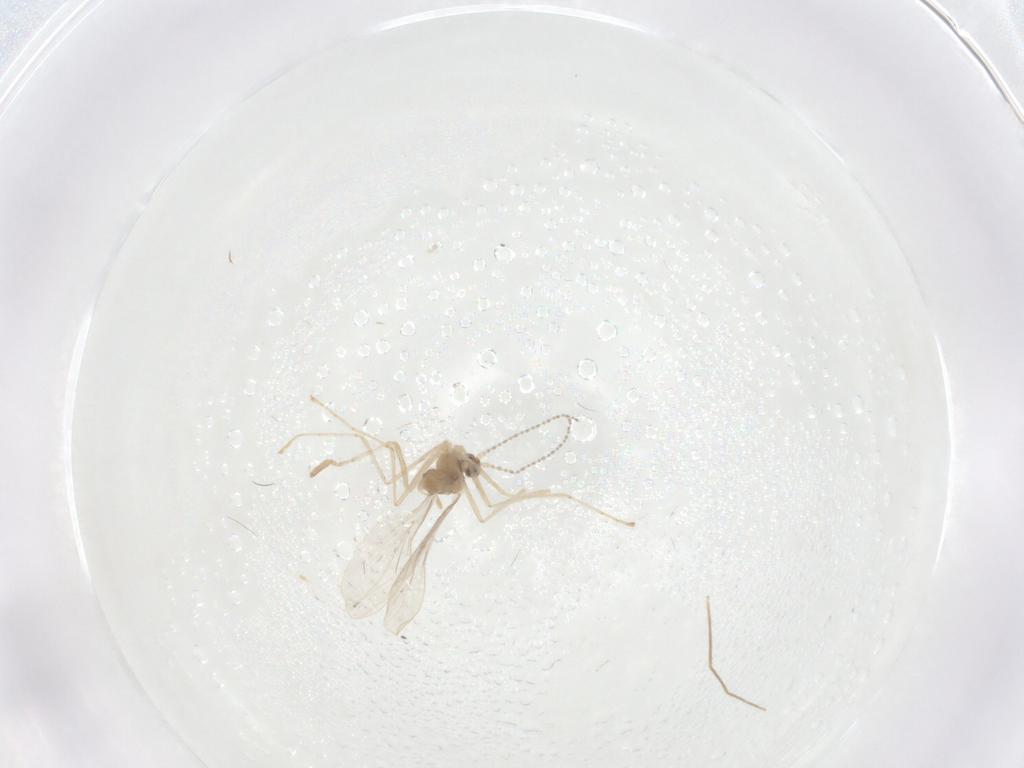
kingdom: Animalia
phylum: Arthropoda
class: Insecta
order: Diptera
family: Cecidomyiidae
